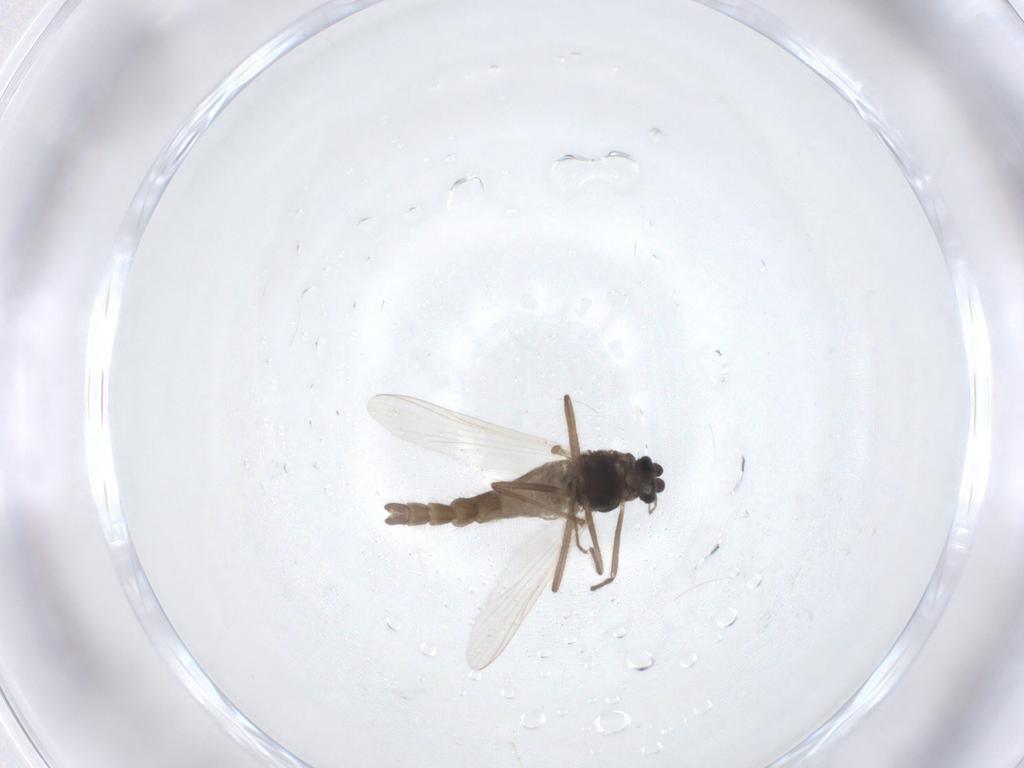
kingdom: Animalia
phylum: Arthropoda
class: Insecta
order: Diptera
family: Chironomidae
